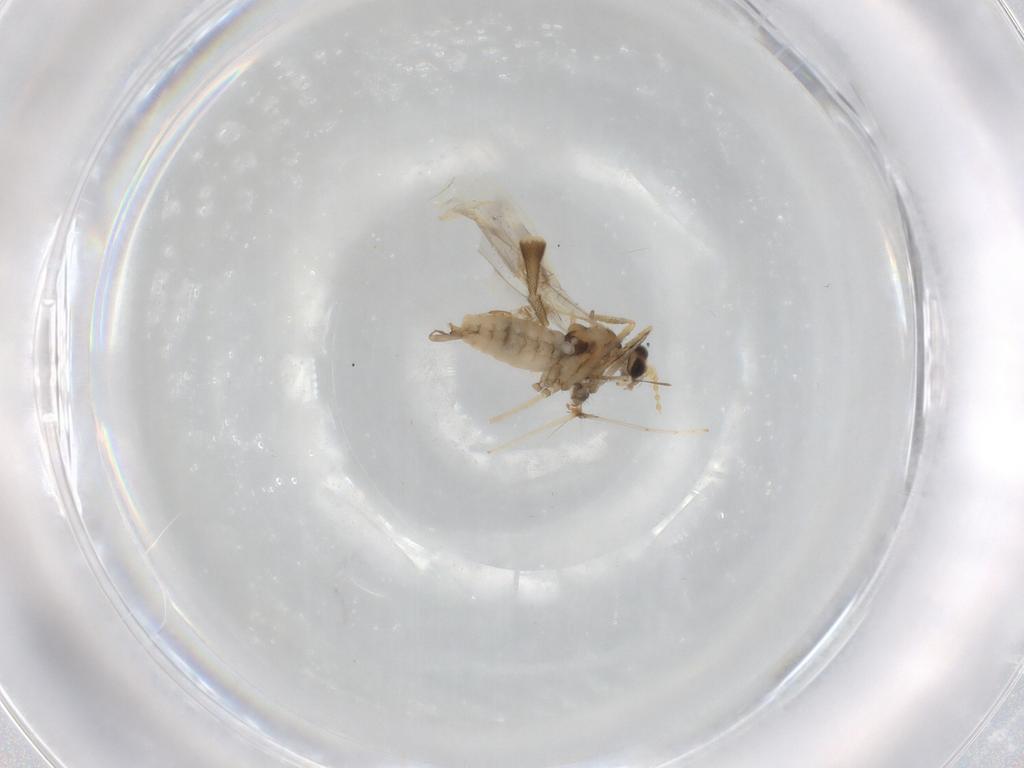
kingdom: Animalia
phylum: Arthropoda
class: Insecta
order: Diptera
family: Cecidomyiidae
